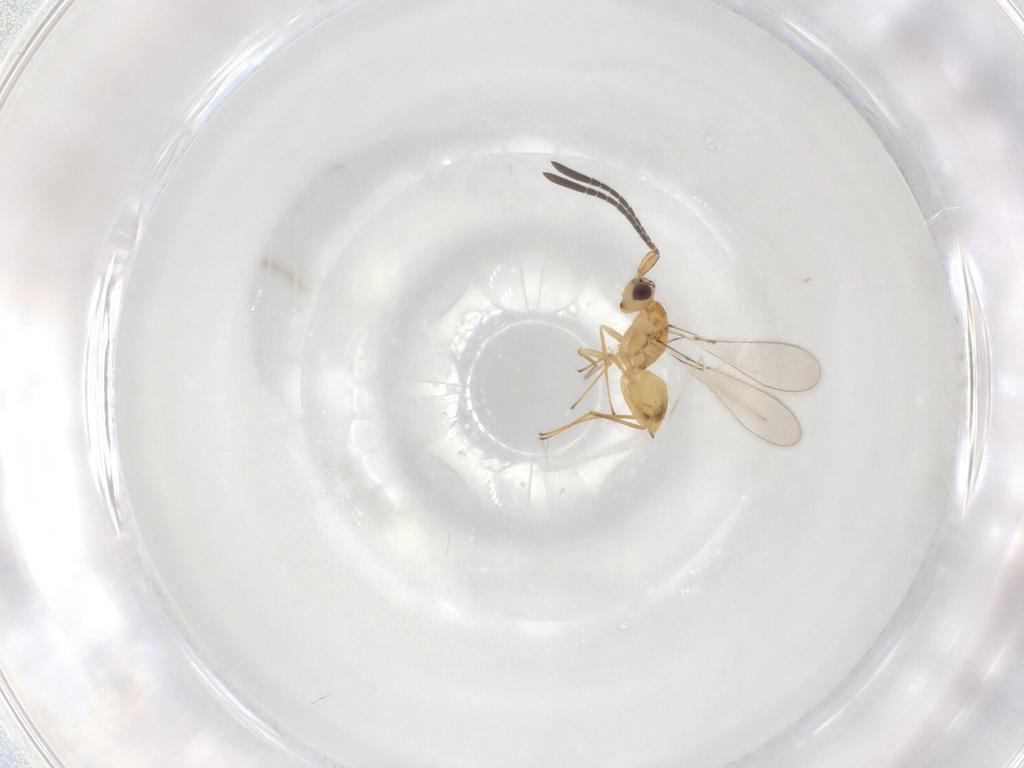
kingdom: Animalia
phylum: Arthropoda
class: Insecta
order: Hymenoptera
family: Mymaridae
